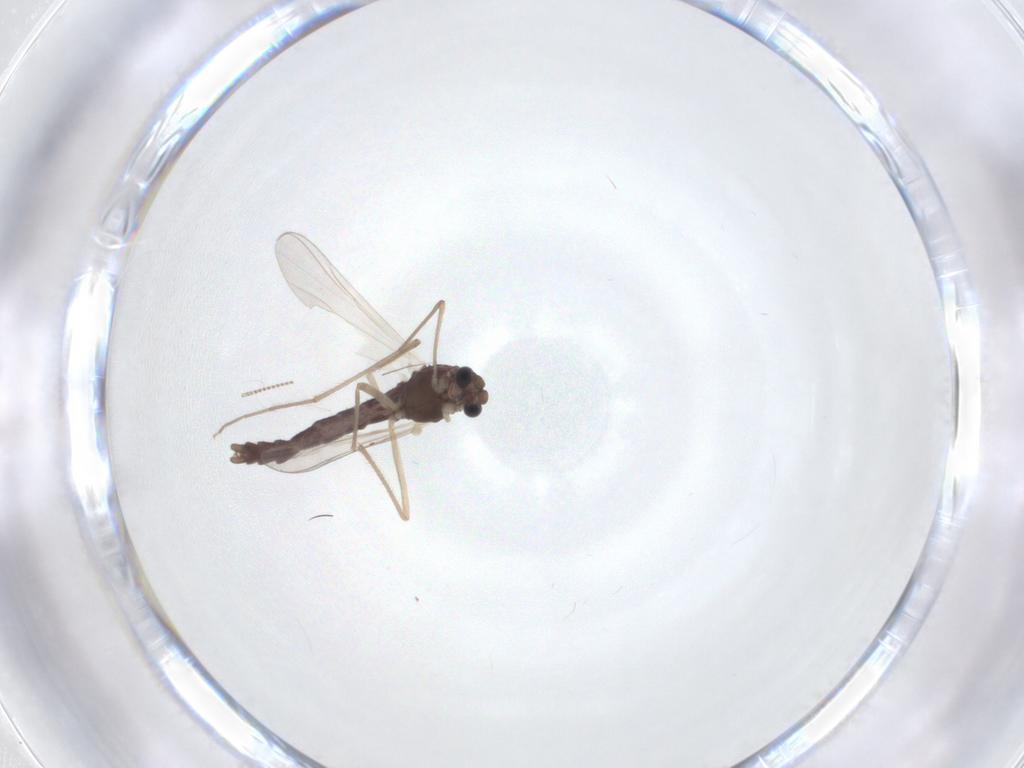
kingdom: Animalia
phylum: Arthropoda
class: Insecta
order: Diptera
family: Chironomidae
